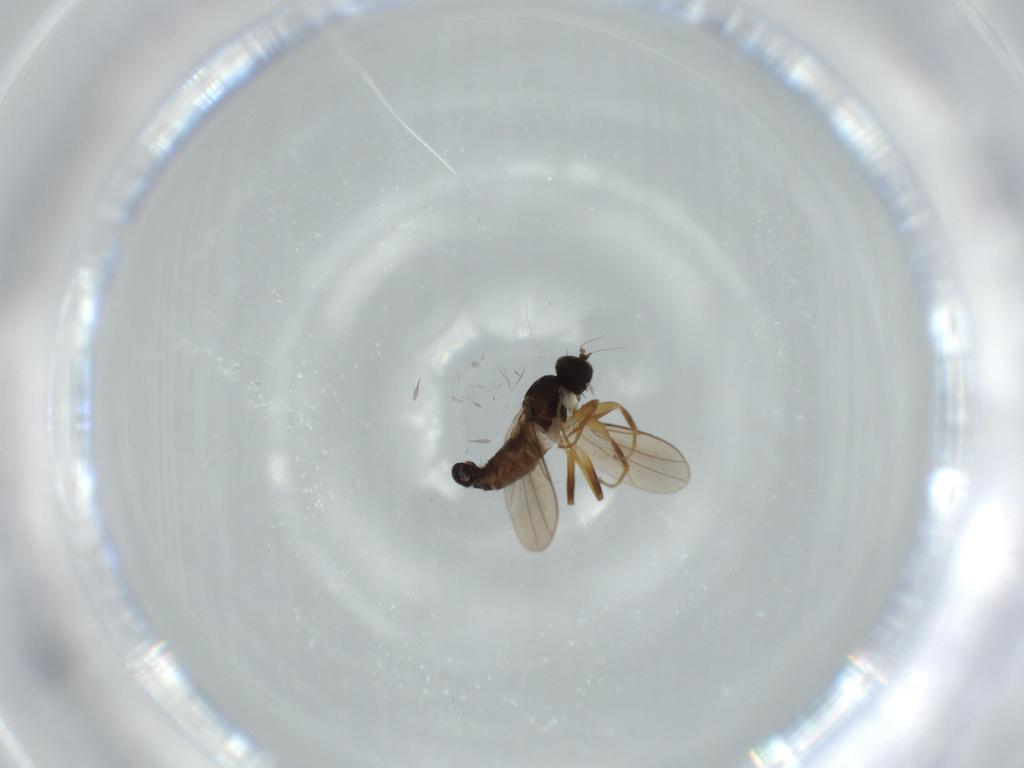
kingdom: Animalia
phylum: Arthropoda
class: Insecta
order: Diptera
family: Hybotidae
